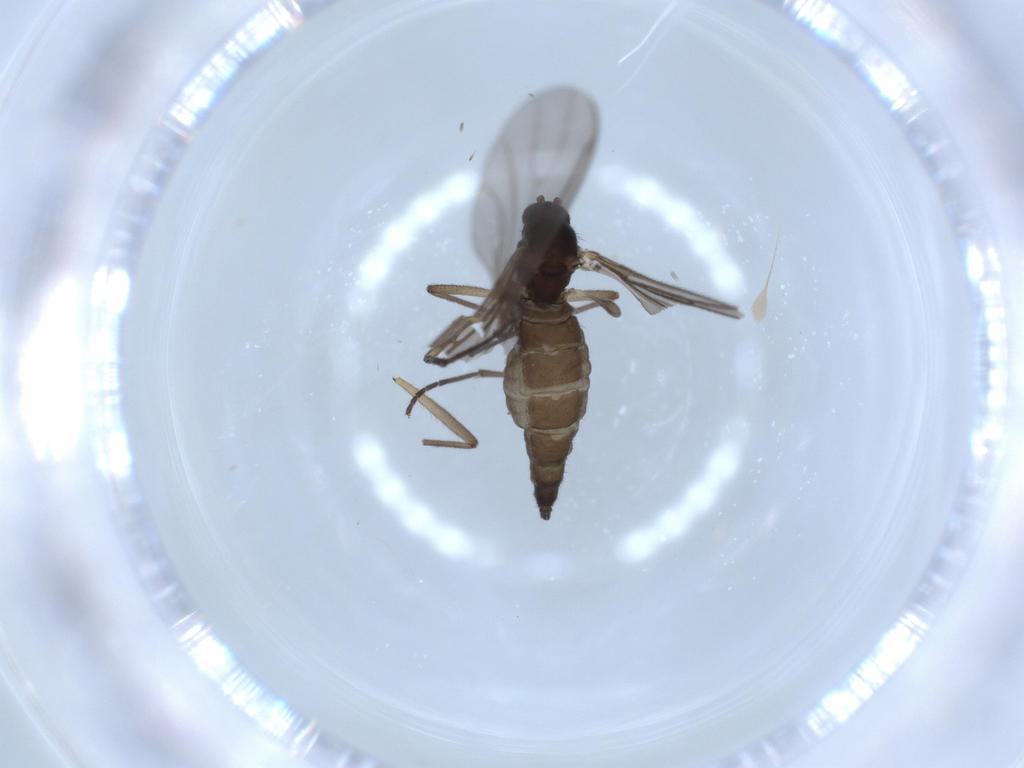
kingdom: Animalia
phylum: Arthropoda
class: Insecta
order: Diptera
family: Sciaridae
